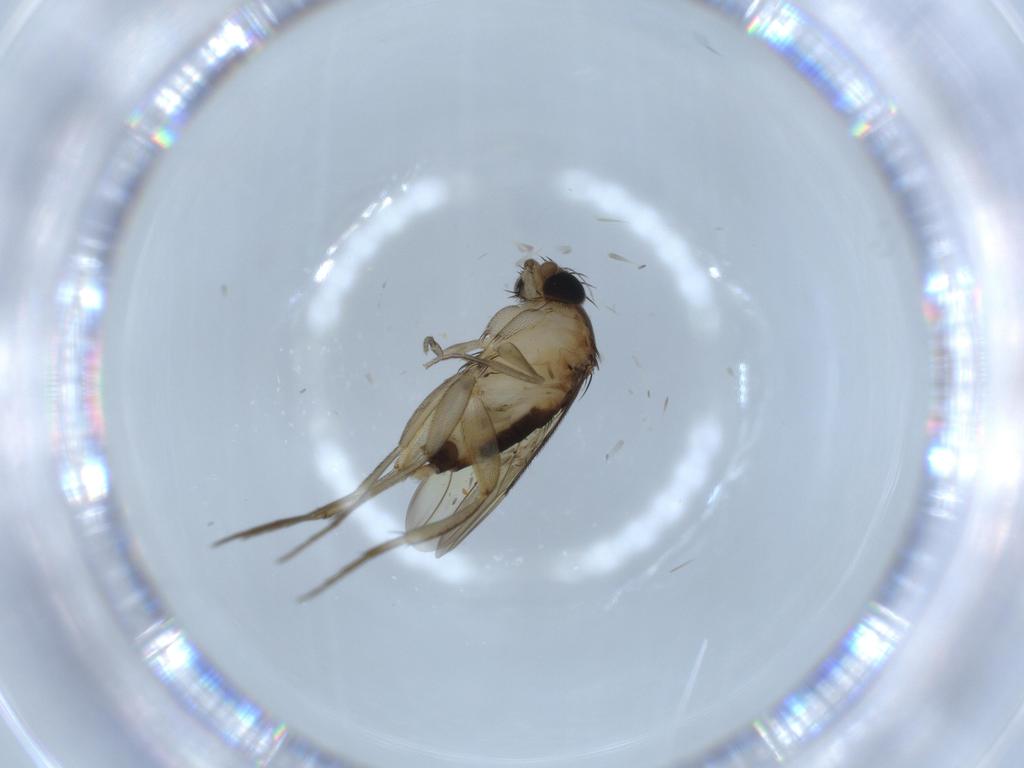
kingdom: Animalia
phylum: Arthropoda
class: Insecta
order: Diptera
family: Phoridae
